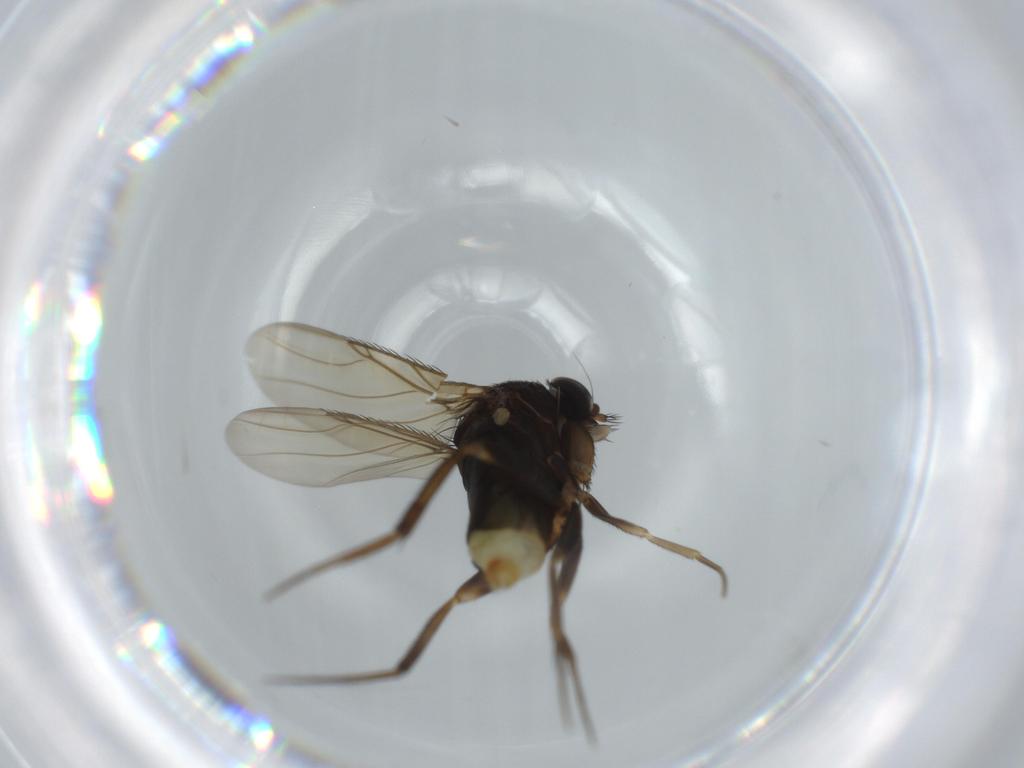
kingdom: Animalia
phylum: Arthropoda
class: Insecta
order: Diptera
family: Phoridae
